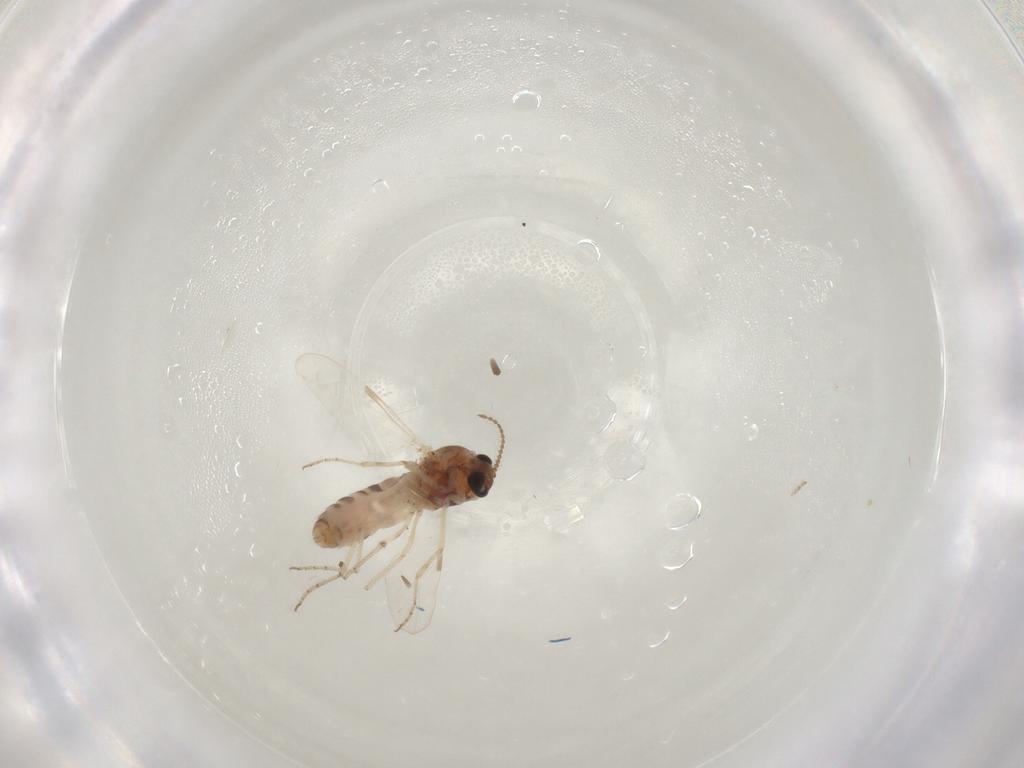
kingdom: Animalia
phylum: Arthropoda
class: Insecta
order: Diptera
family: Ceratopogonidae
